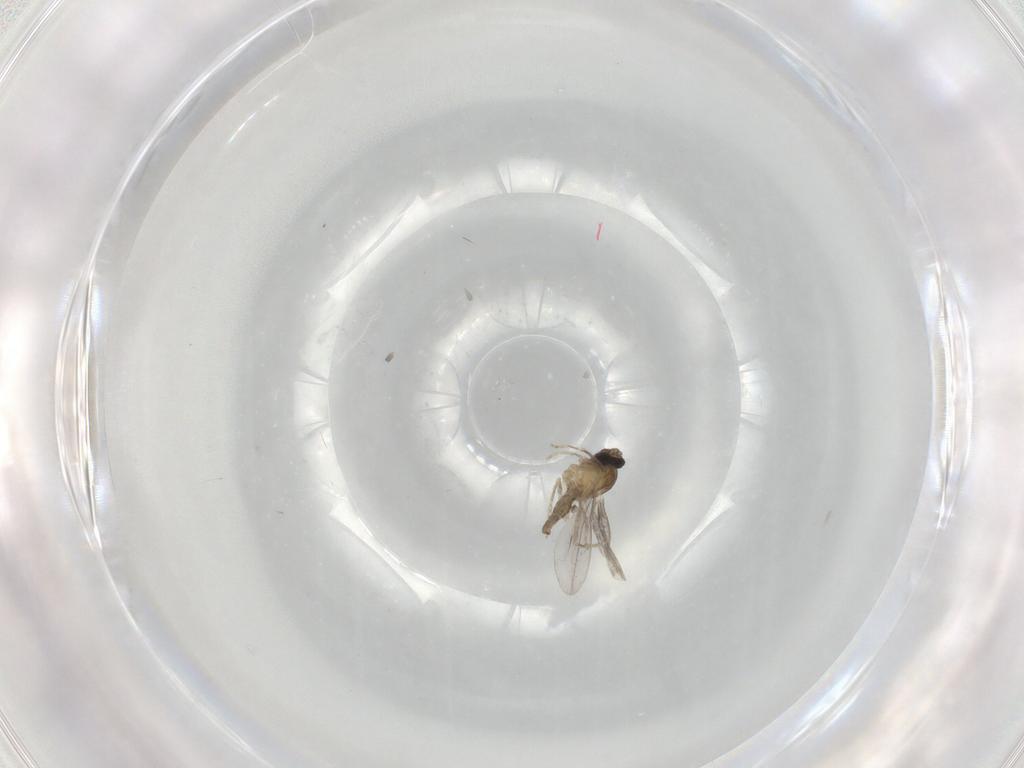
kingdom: Animalia
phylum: Arthropoda
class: Insecta
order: Diptera
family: Cecidomyiidae
